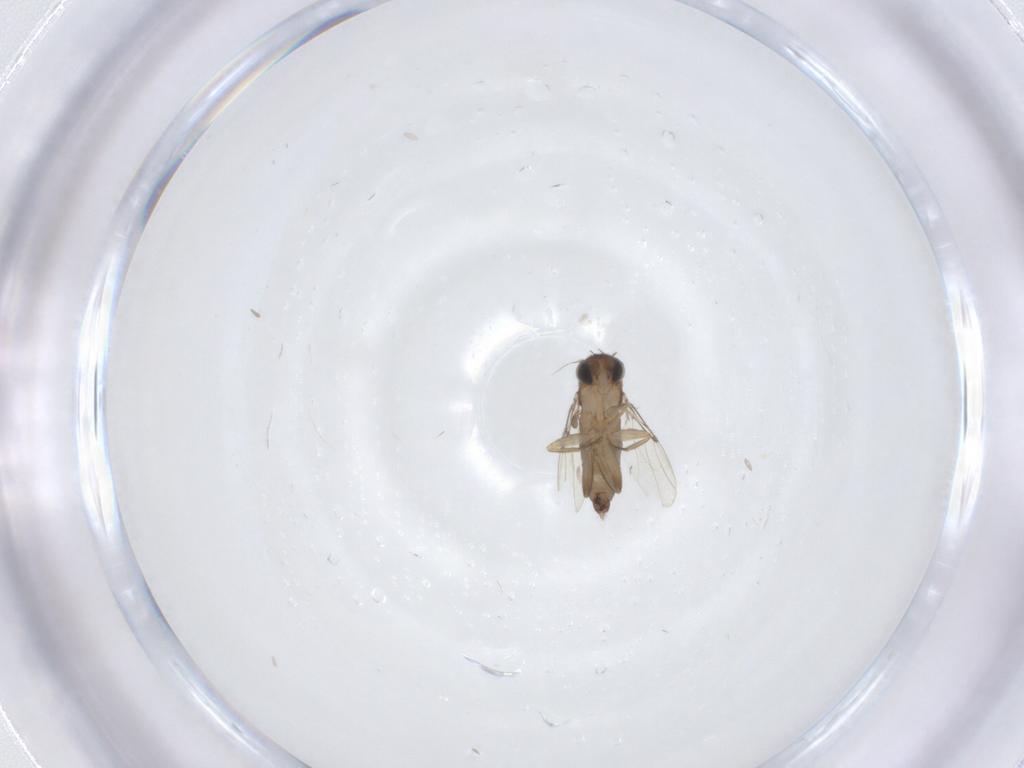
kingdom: Animalia
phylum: Arthropoda
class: Insecta
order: Diptera
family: Phoridae
